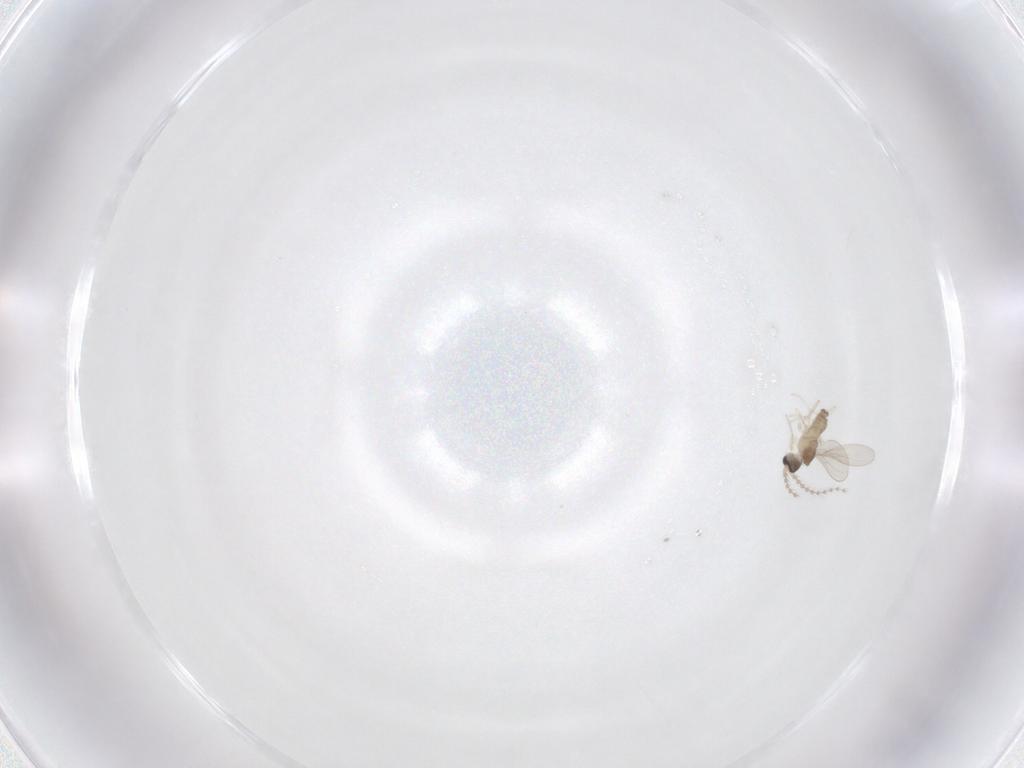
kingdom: Animalia
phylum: Arthropoda
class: Insecta
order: Diptera
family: Cecidomyiidae
